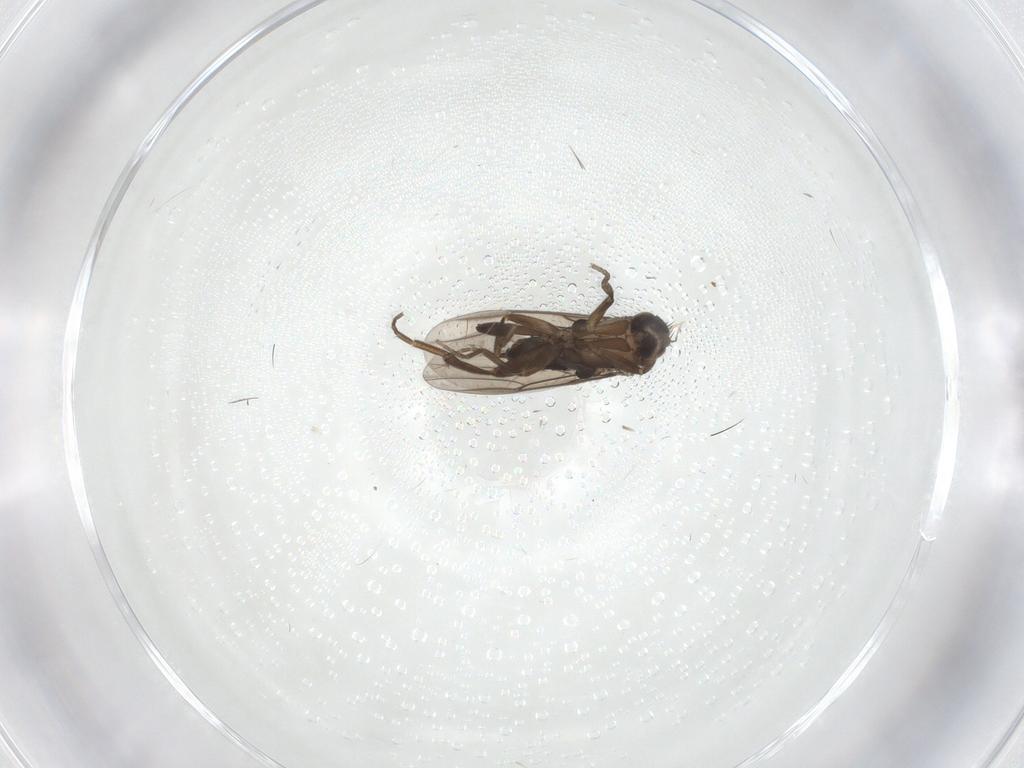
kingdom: Animalia
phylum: Arthropoda
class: Insecta
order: Diptera
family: Phoridae
